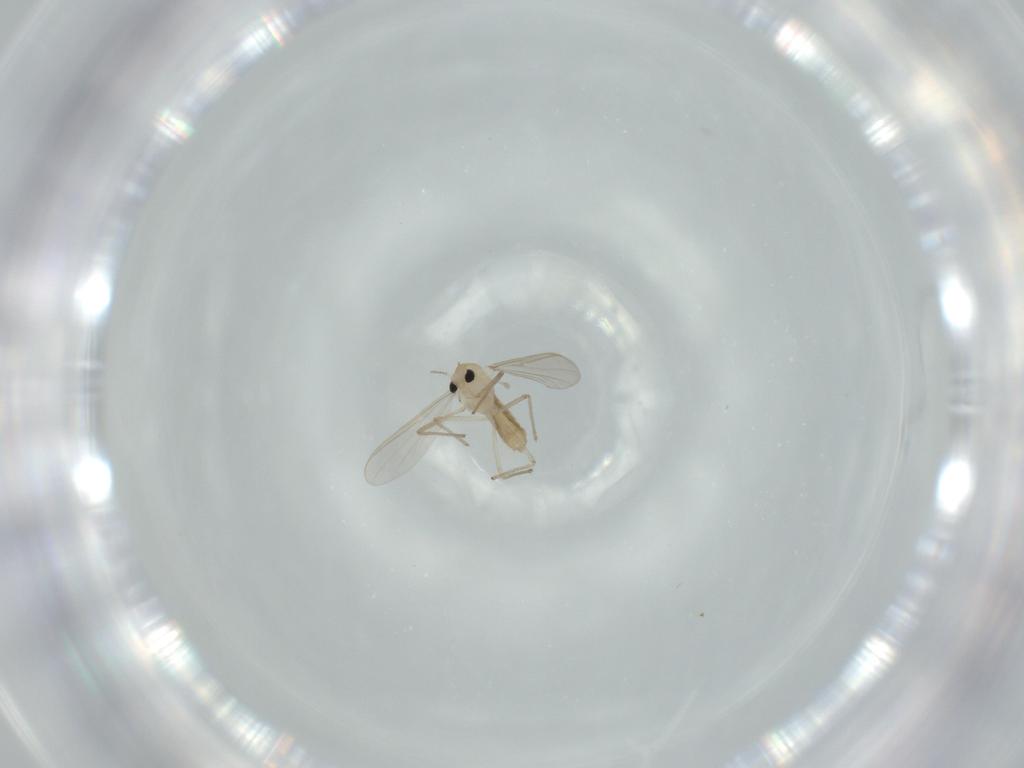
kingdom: Animalia
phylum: Arthropoda
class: Insecta
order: Diptera
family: Chironomidae
